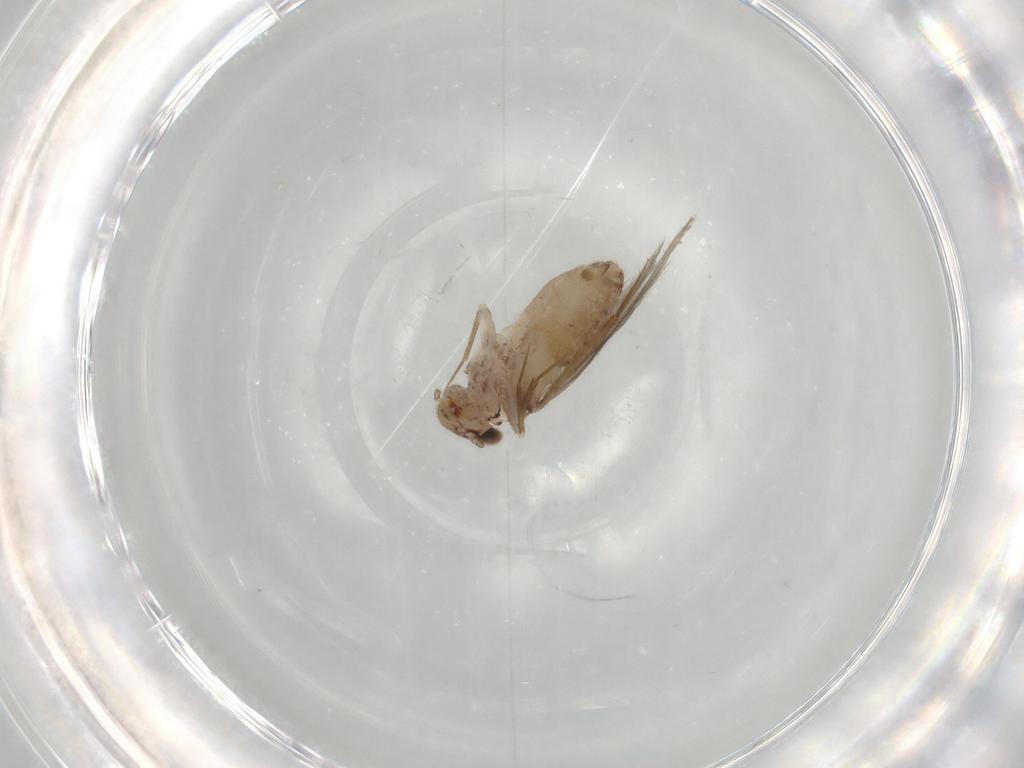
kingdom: Animalia
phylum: Arthropoda
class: Insecta
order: Psocodea
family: Lepidopsocidae
